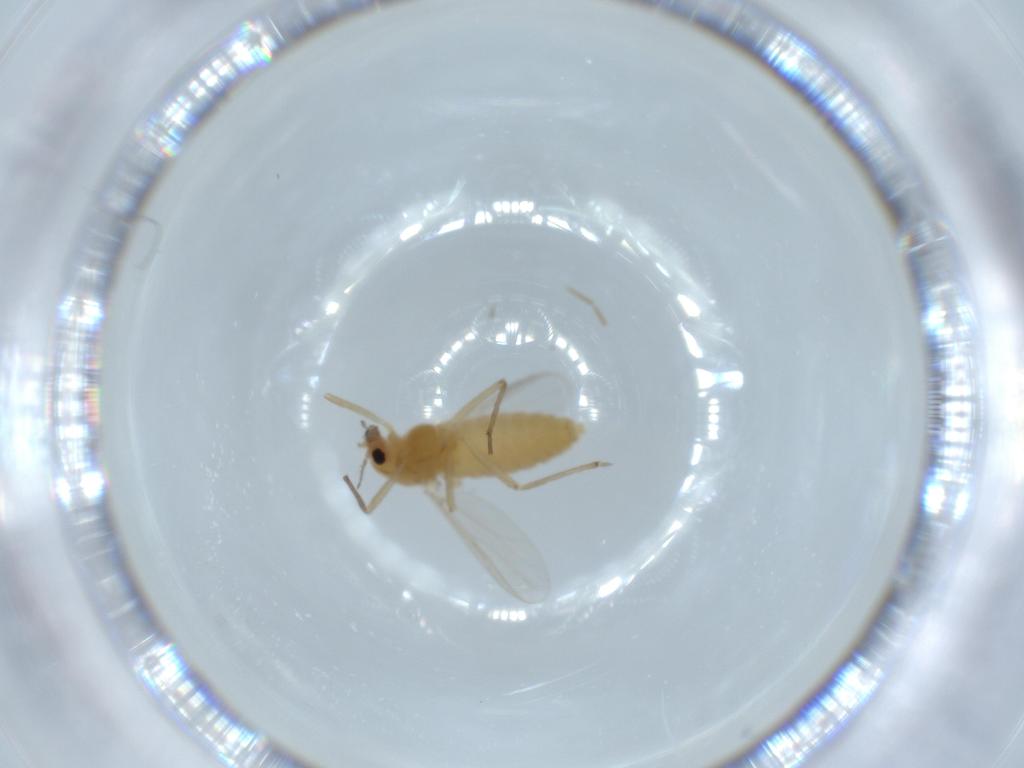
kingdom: Animalia
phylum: Arthropoda
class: Insecta
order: Diptera
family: Chironomidae
